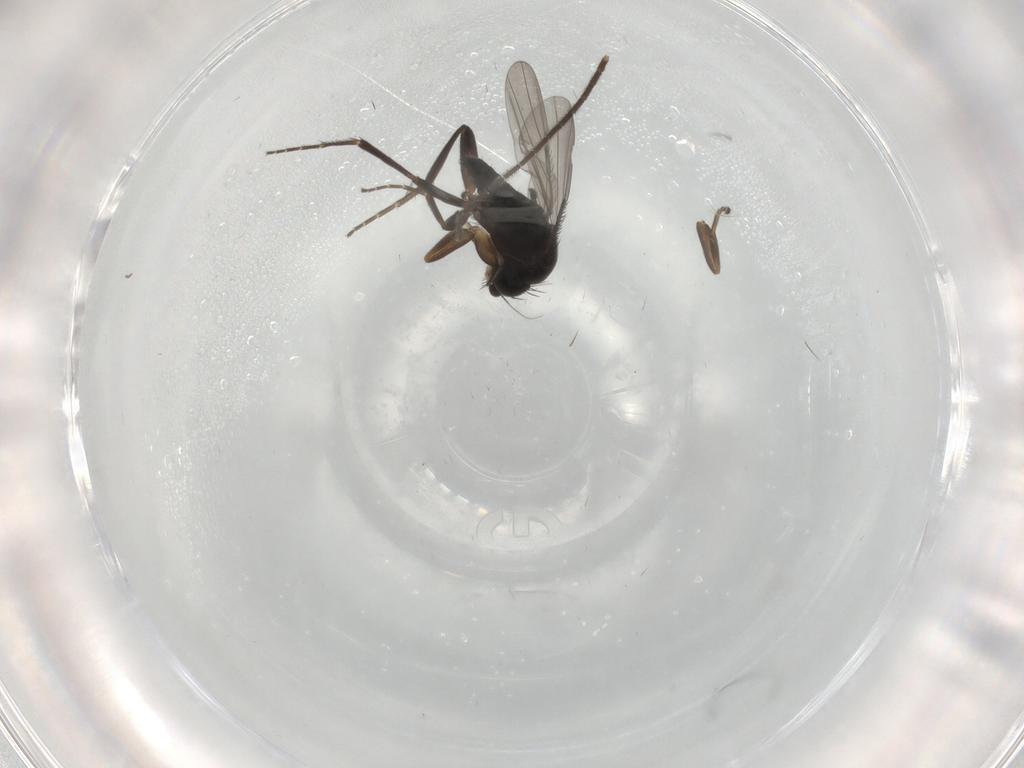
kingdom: Animalia
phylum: Arthropoda
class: Insecta
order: Diptera
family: Phoridae
